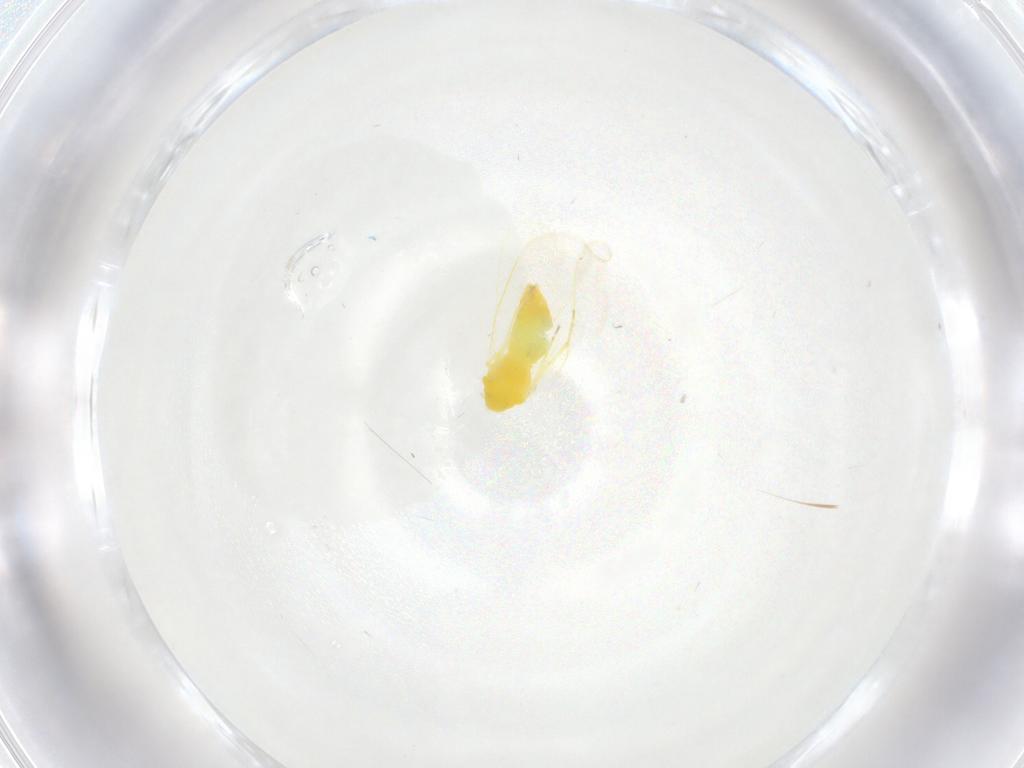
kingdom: Animalia
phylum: Arthropoda
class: Insecta
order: Hemiptera
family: Aleyrodidae
